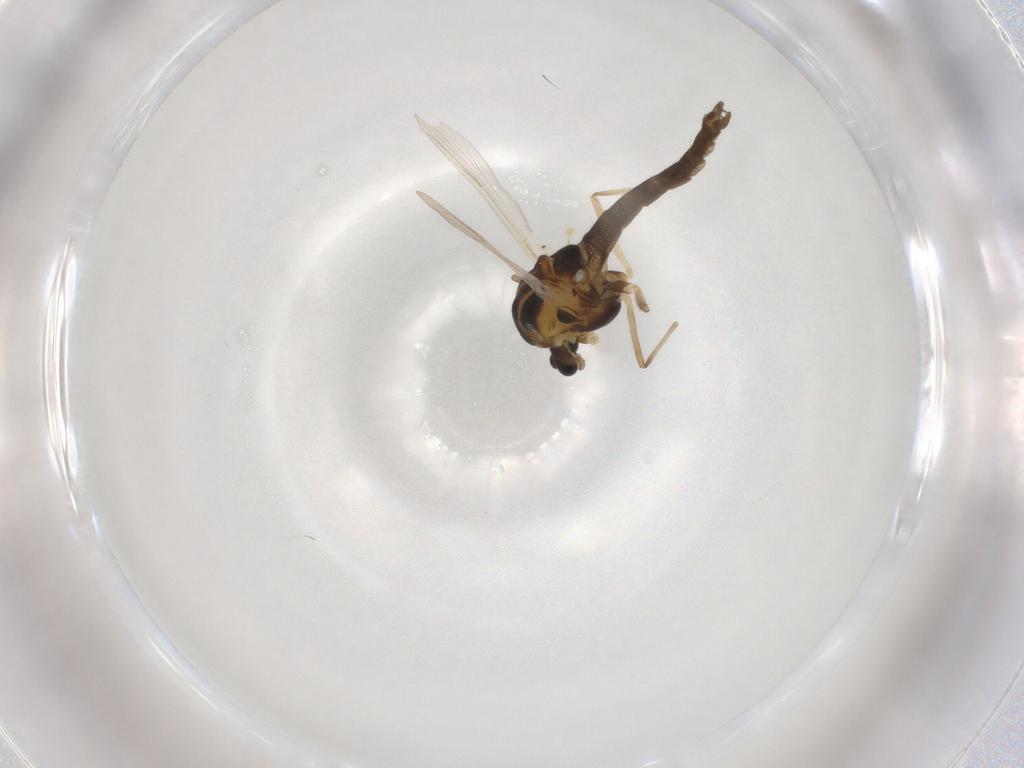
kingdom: Animalia
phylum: Arthropoda
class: Insecta
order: Diptera
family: Chironomidae
